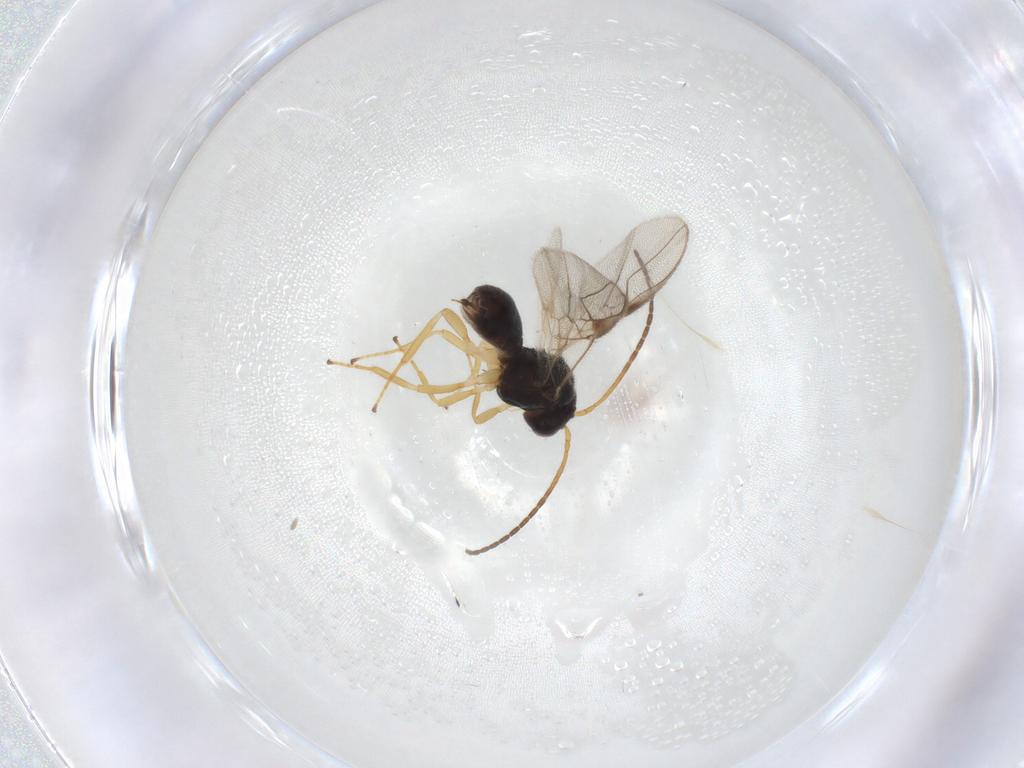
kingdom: Animalia
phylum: Arthropoda
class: Insecta
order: Hymenoptera
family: Braconidae
